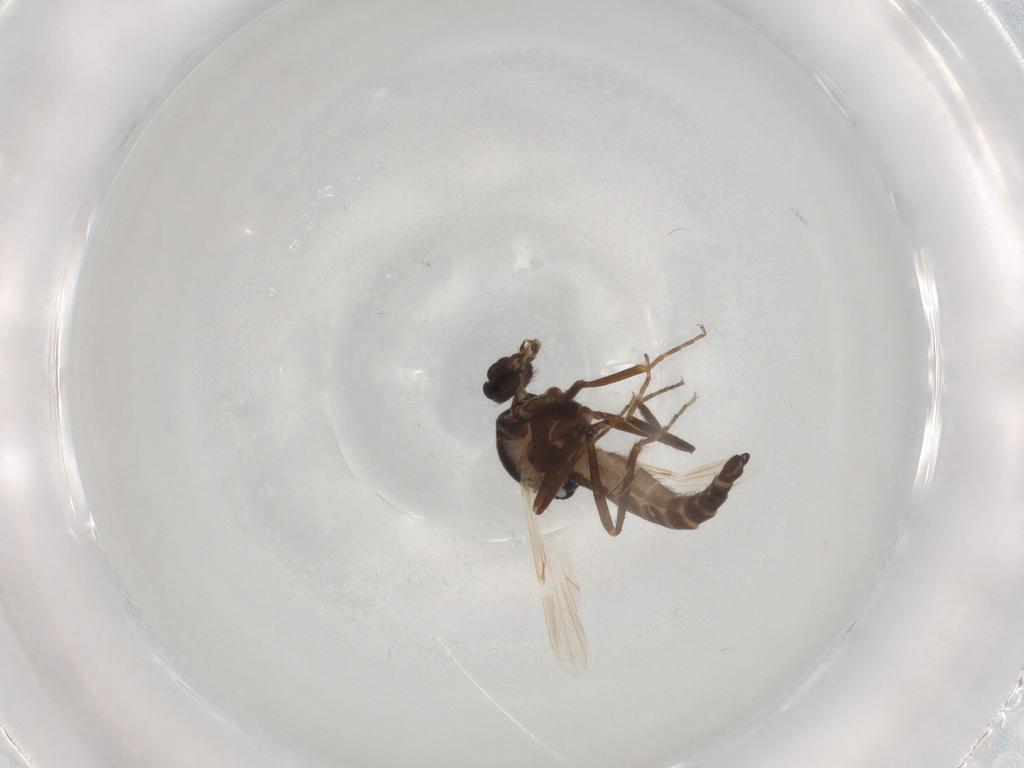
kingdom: Animalia
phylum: Arthropoda
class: Insecta
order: Diptera
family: Ceratopogonidae
